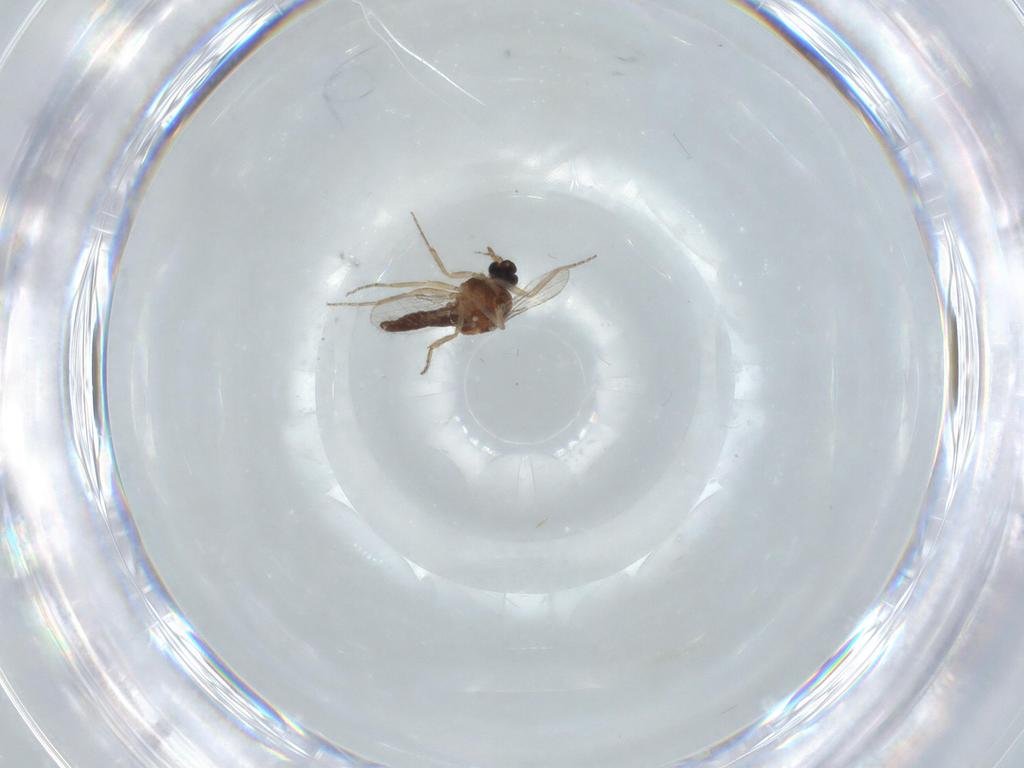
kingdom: Animalia
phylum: Arthropoda
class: Insecta
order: Diptera
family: Ceratopogonidae
